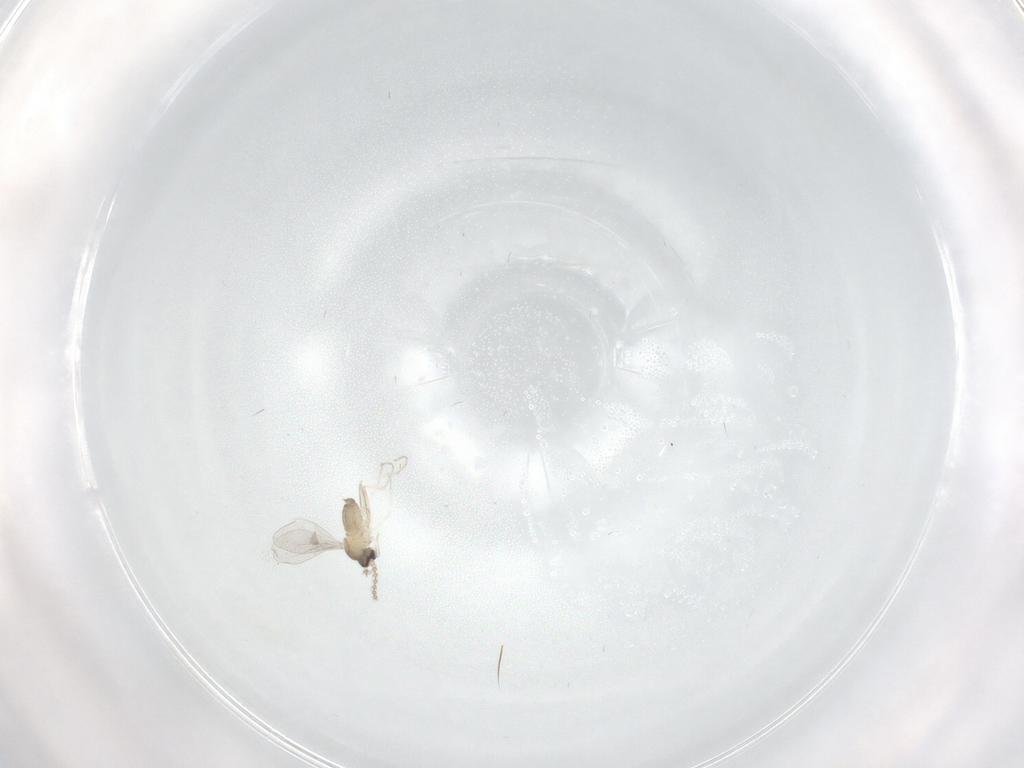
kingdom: Animalia
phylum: Arthropoda
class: Insecta
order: Diptera
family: Cecidomyiidae
